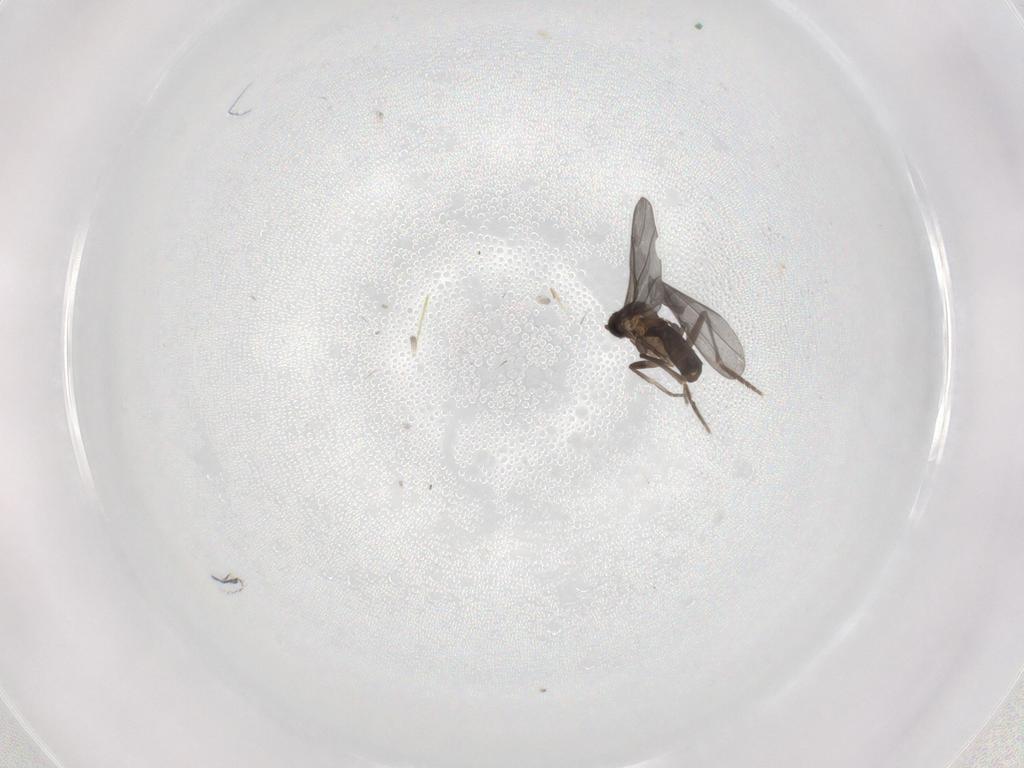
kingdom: Animalia
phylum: Arthropoda
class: Insecta
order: Diptera
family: Phoridae
